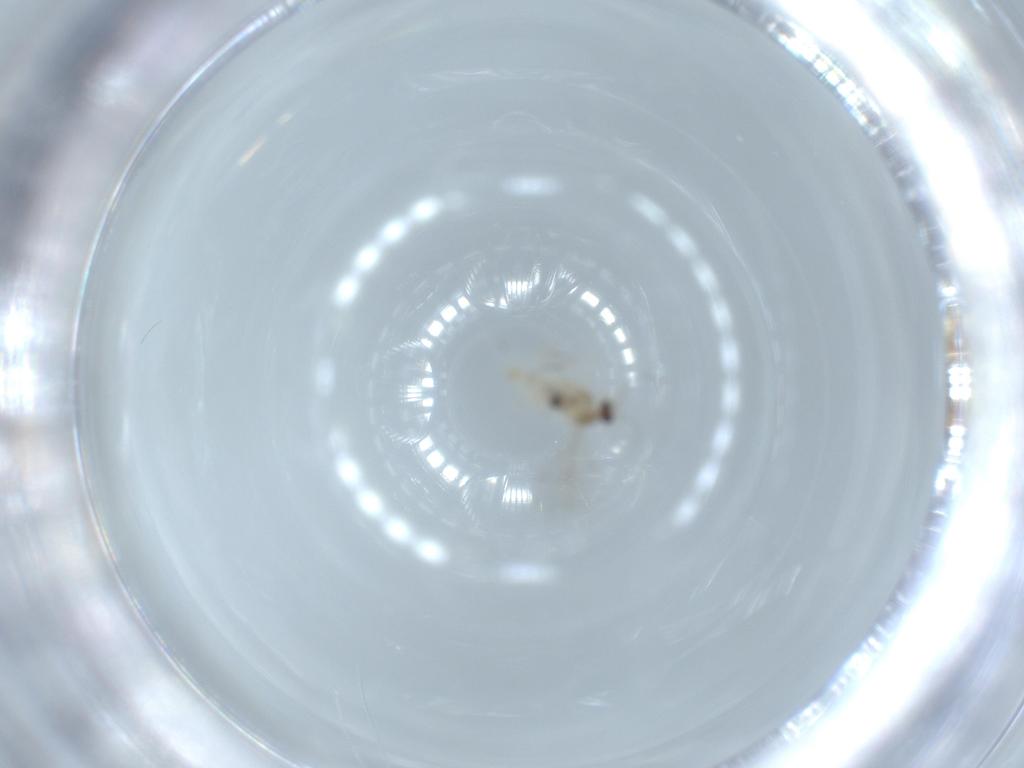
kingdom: Animalia
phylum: Arthropoda
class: Insecta
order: Diptera
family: Cecidomyiidae
